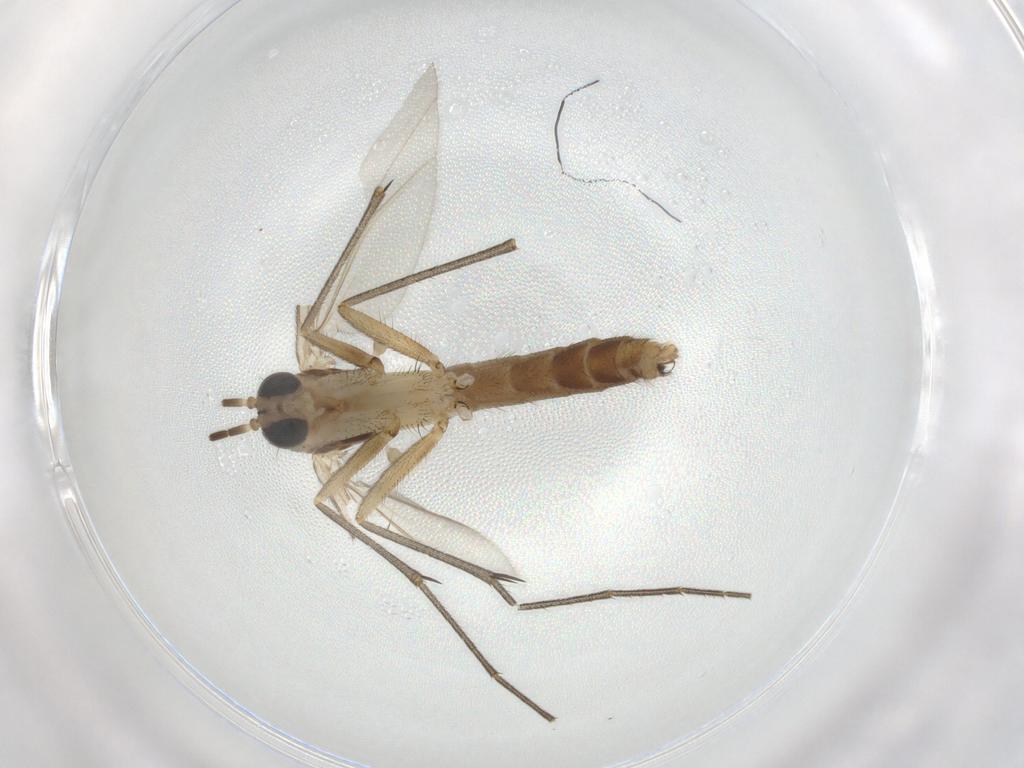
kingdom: Animalia
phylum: Arthropoda
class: Insecta
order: Diptera
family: Mycetophilidae
